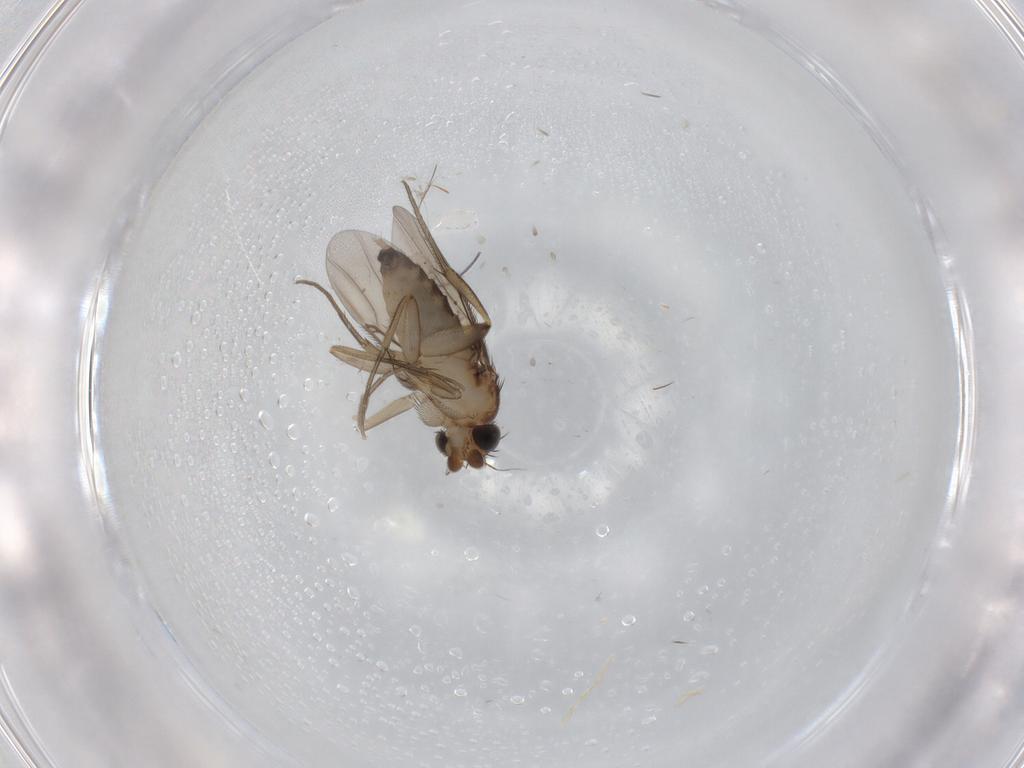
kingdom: Animalia
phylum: Arthropoda
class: Insecta
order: Diptera
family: Phoridae
